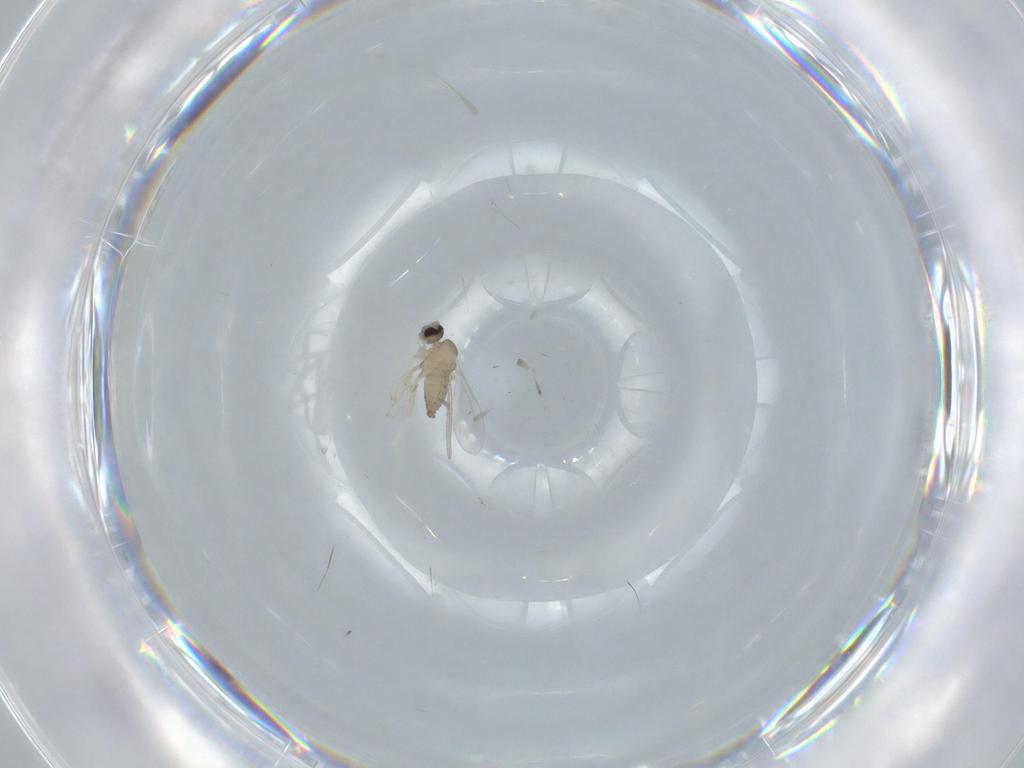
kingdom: Animalia
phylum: Arthropoda
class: Insecta
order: Diptera
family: Cecidomyiidae
